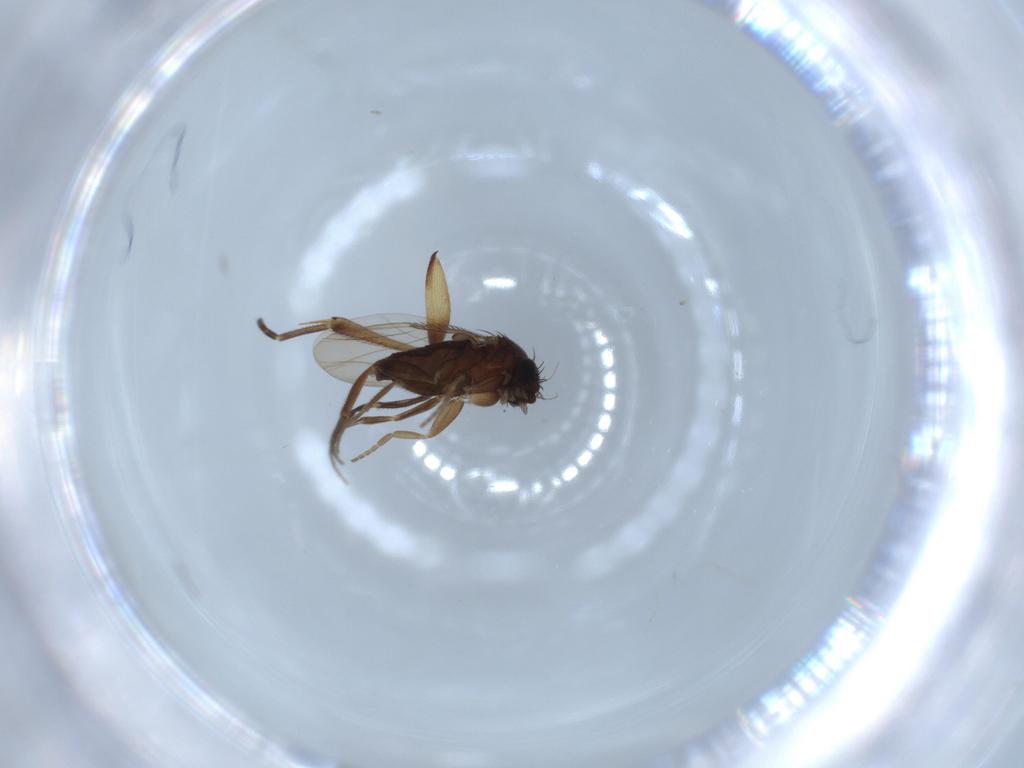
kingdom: Animalia
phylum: Arthropoda
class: Insecta
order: Diptera
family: Phoridae
